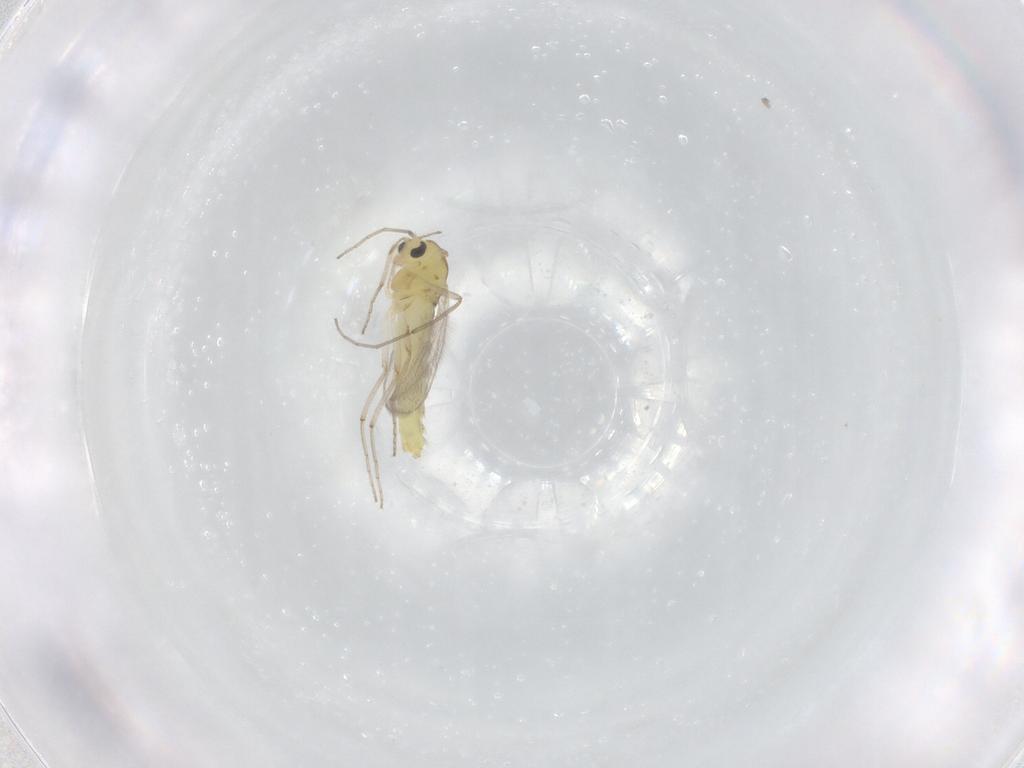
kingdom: Animalia
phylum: Arthropoda
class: Insecta
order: Diptera
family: Chironomidae
